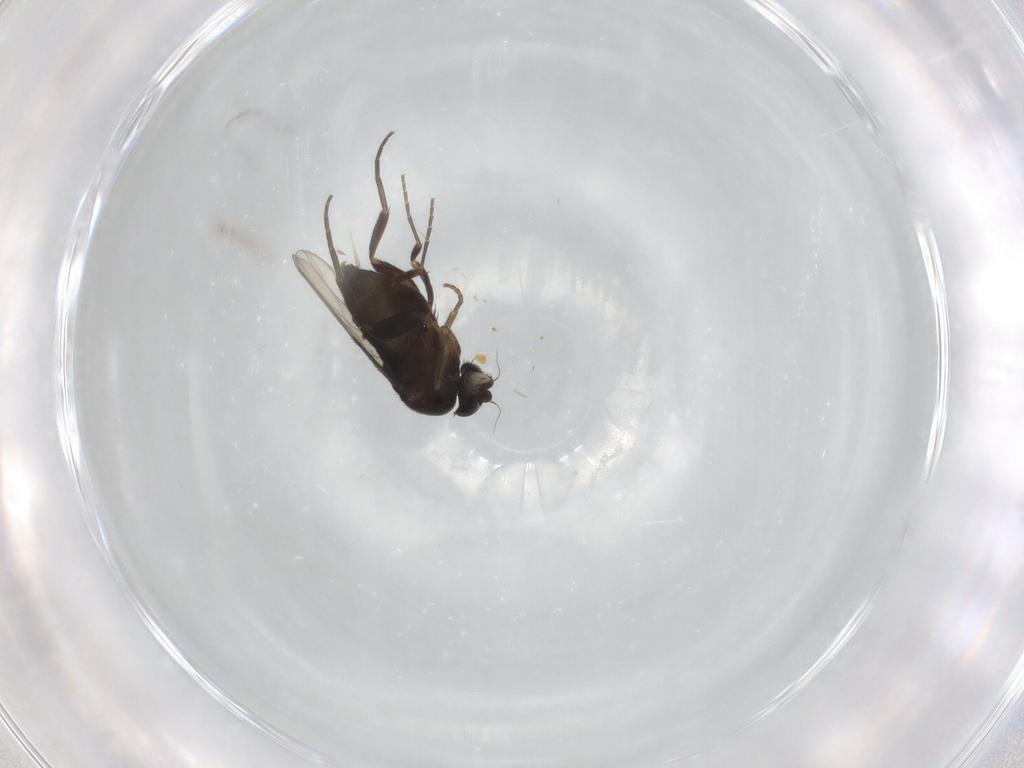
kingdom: Animalia
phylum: Arthropoda
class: Insecta
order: Diptera
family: Phoridae
